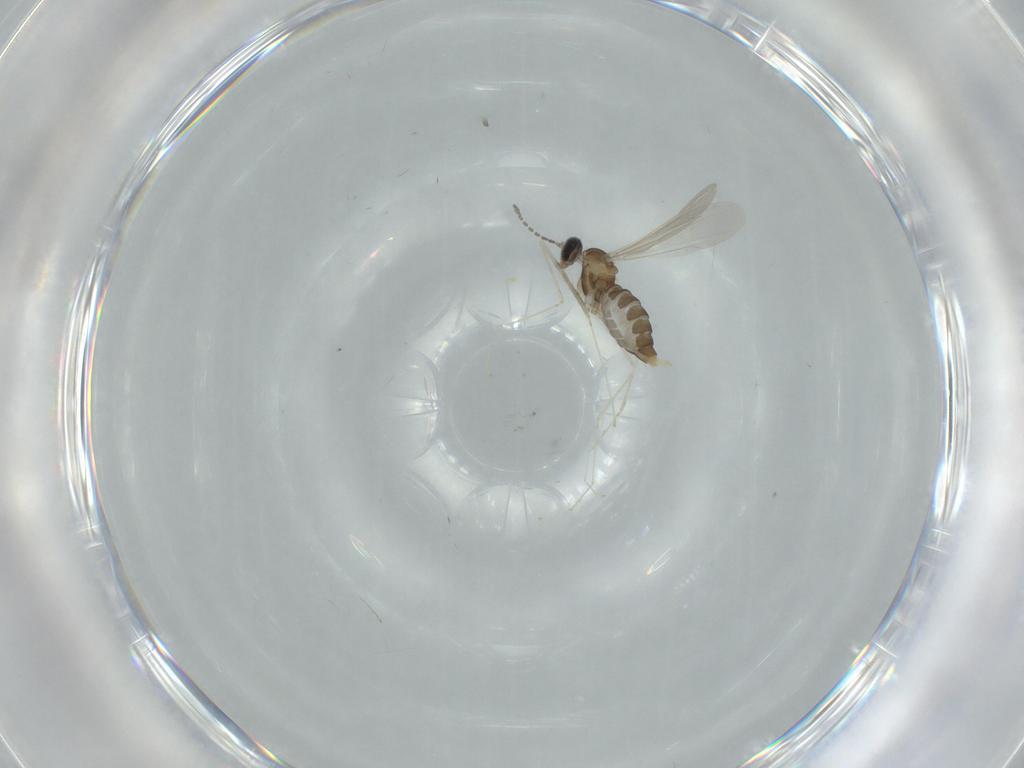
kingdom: Animalia
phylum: Arthropoda
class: Insecta
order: Diptera
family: Cecidomyiidae
